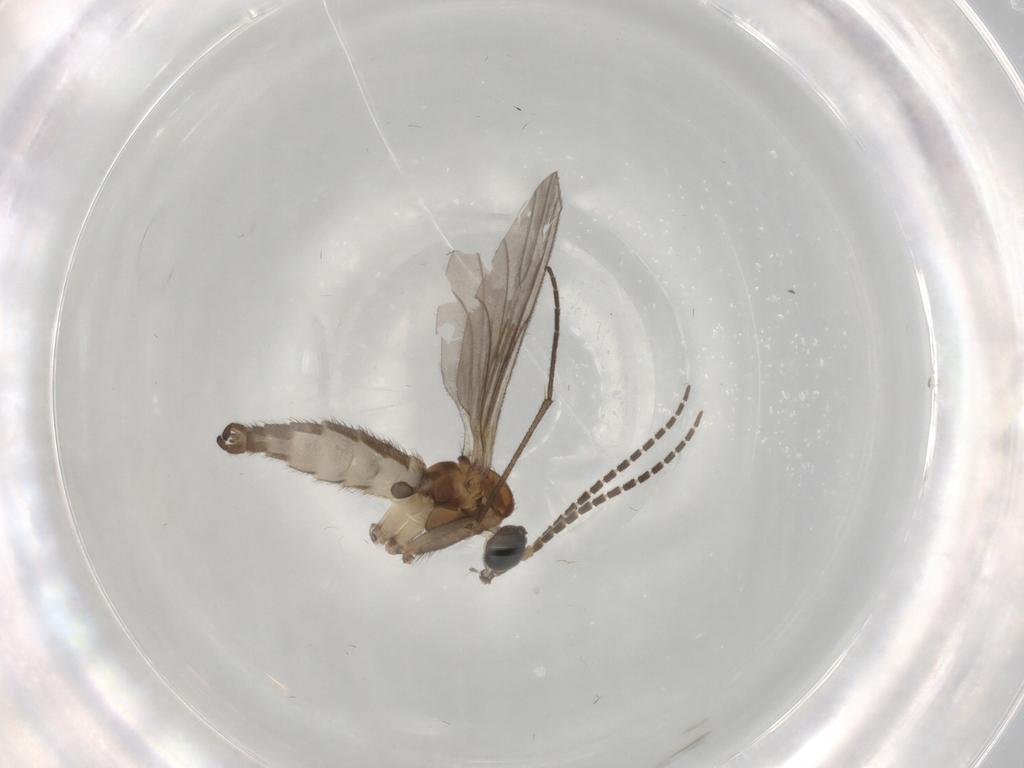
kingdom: Animalia
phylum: Arthropoda
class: Insecta
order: Diptera
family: Sciaridae
